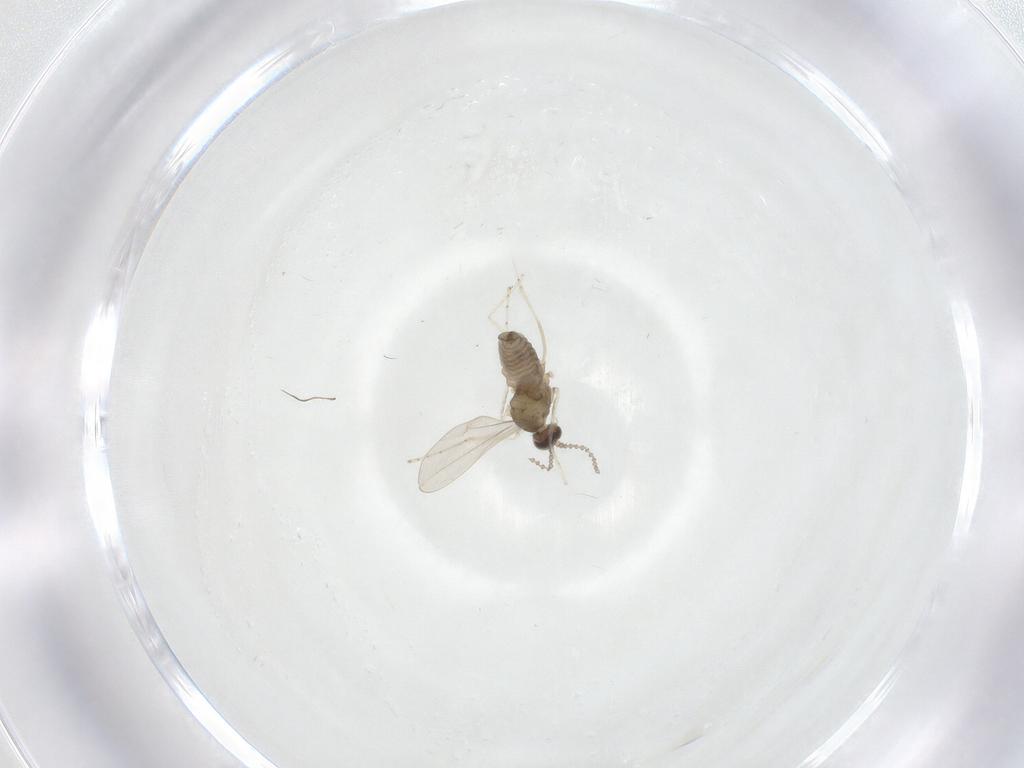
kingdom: Animalia
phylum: Arthropoda
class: Insecta
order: Diptera
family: Cecidomyiidae
